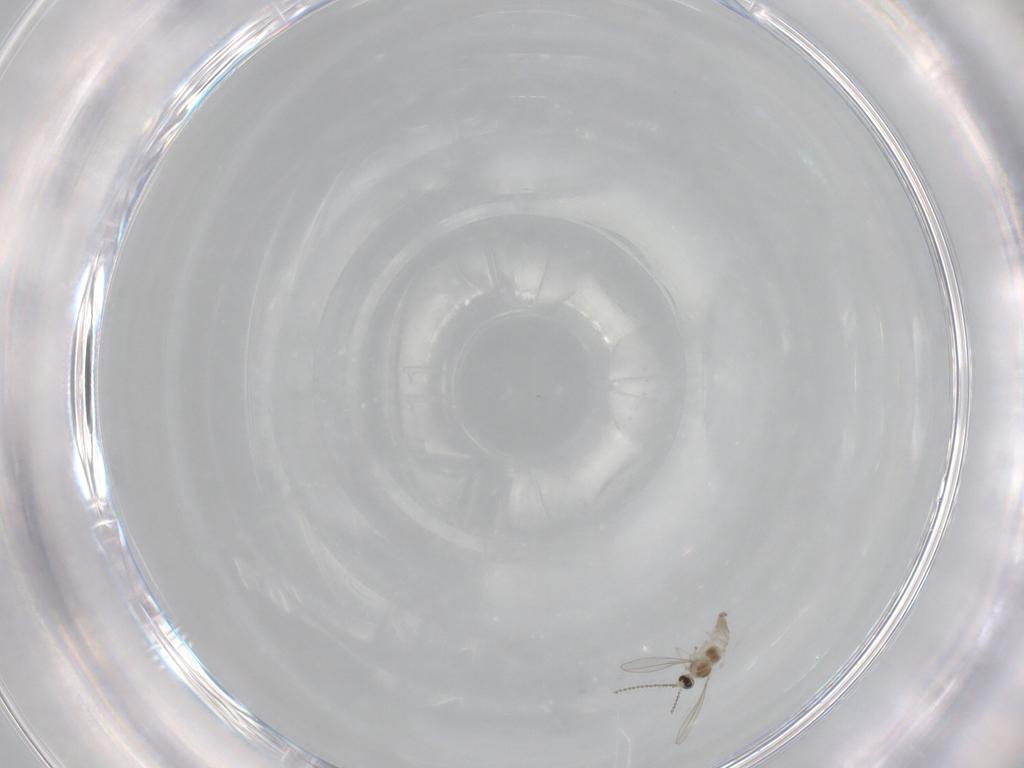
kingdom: Animalia
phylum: Arthropoda
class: Insecta
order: Diptera
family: Cecidomyiidae
